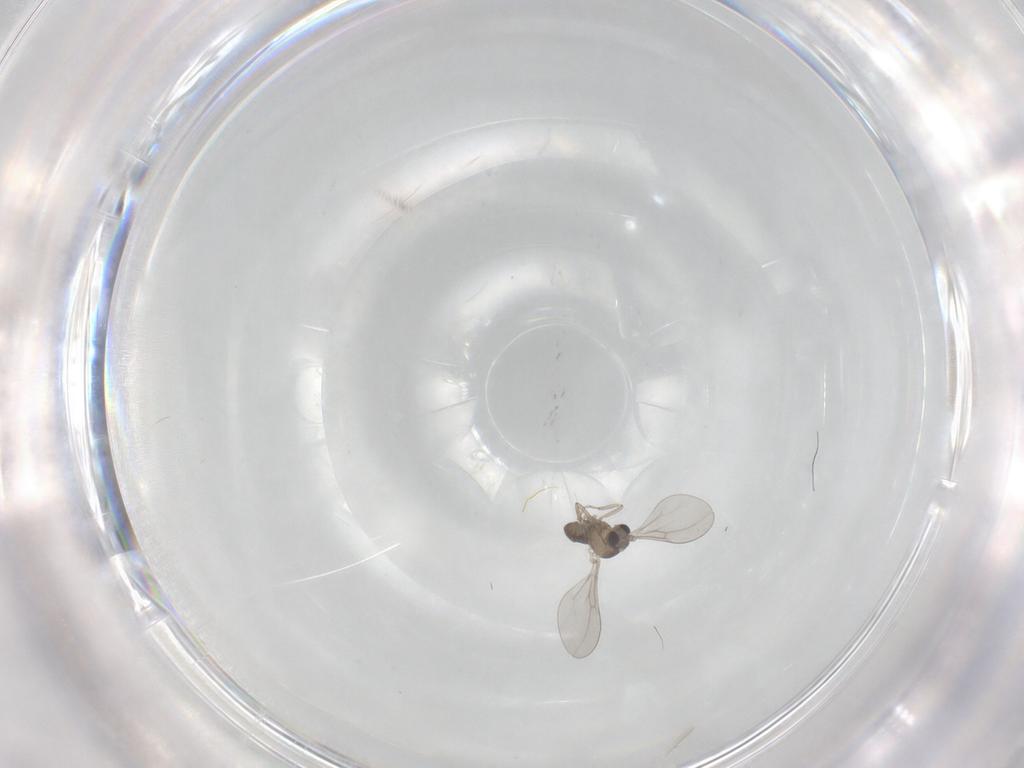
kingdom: Animalia
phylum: Arthropoda
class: Insecta
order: Diptera
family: Cecidomyiidae
